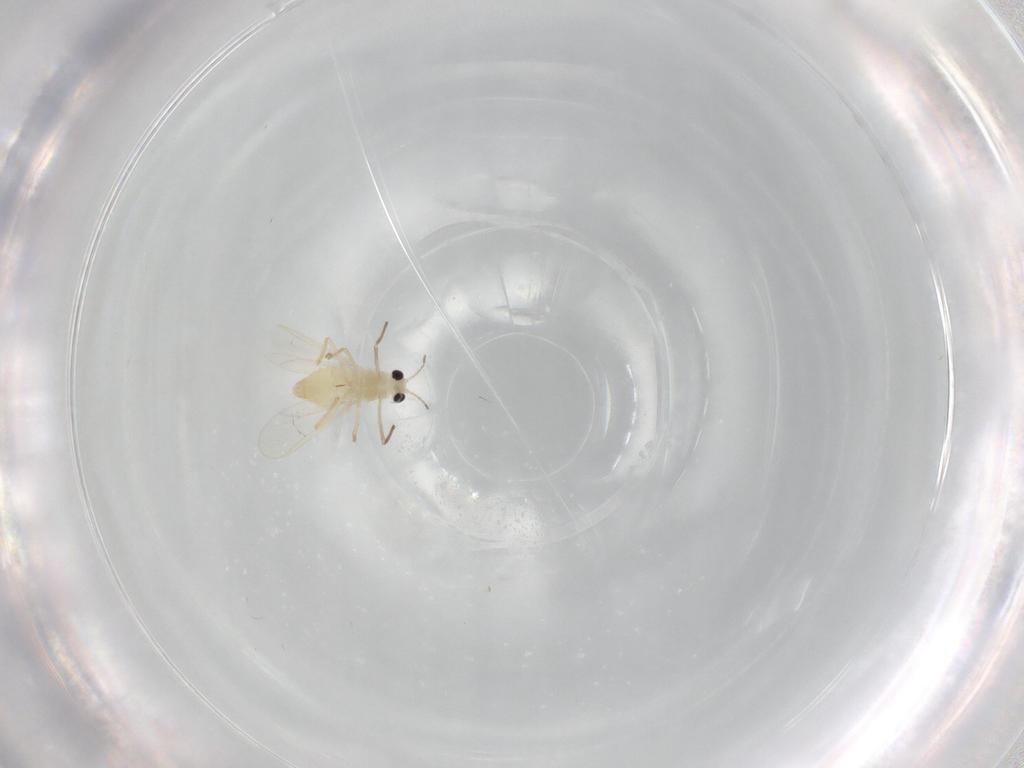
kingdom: Animalia
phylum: Arthropoda
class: Insecta
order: Diptera
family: Chironomidae
